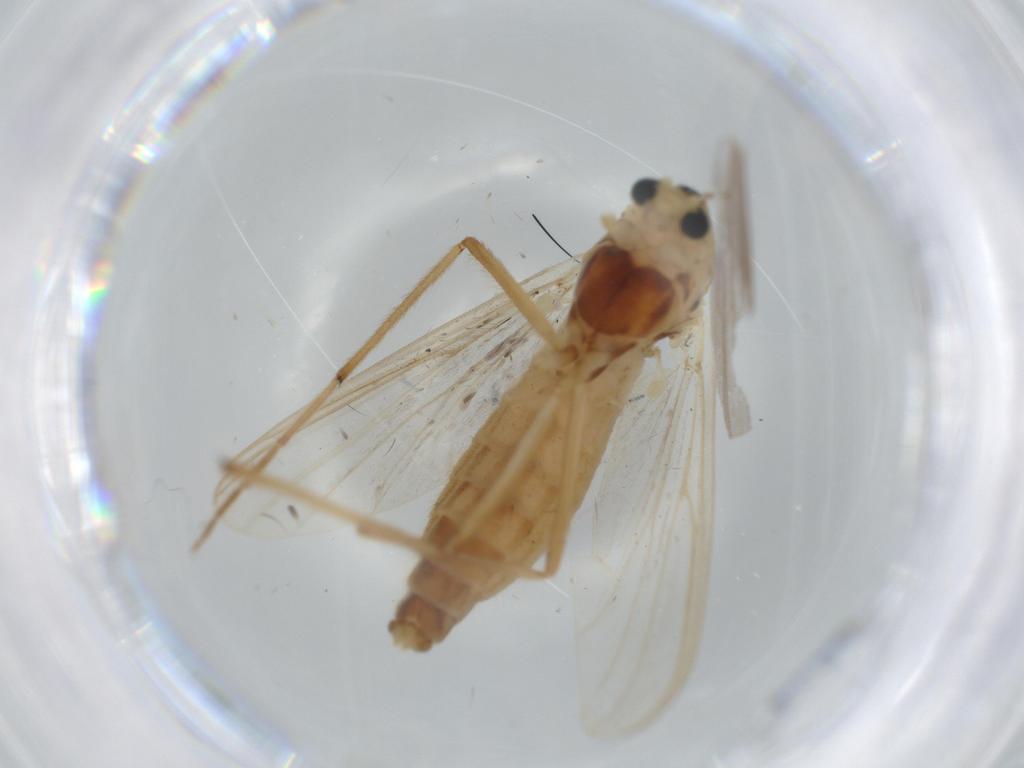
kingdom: Animalia
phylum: Arthropoda
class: Insecta
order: Diptera
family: Chironomidae
